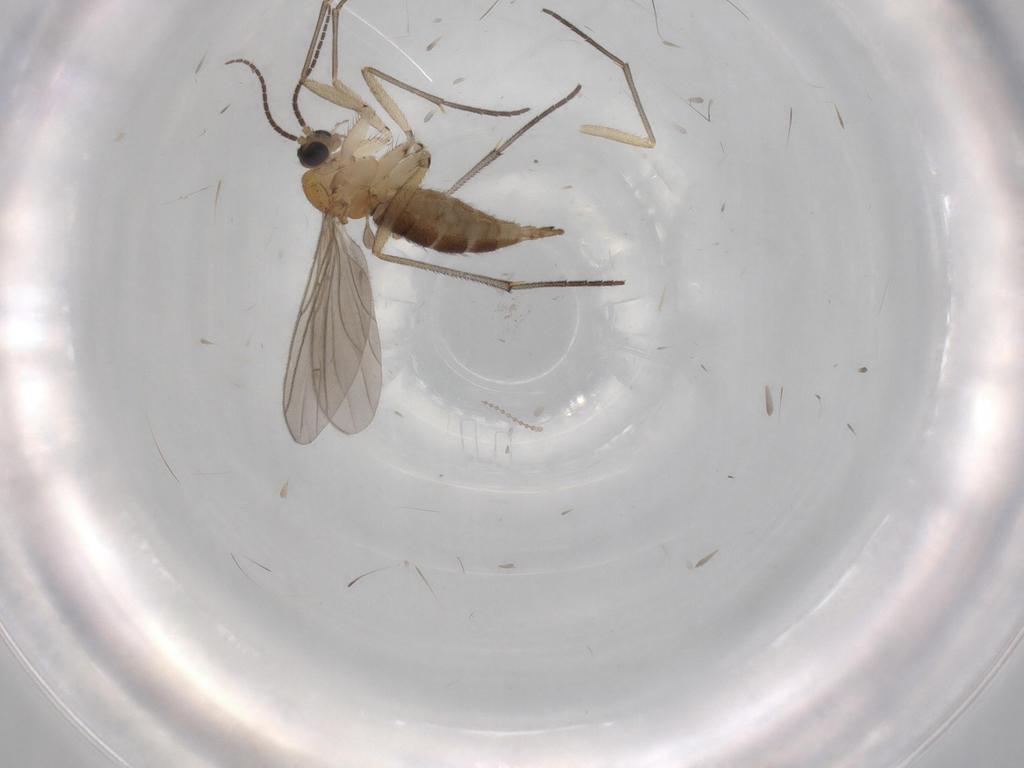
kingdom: Animalia
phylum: Arthropoda
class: Insecta
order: Diptera
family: Sciaridae
